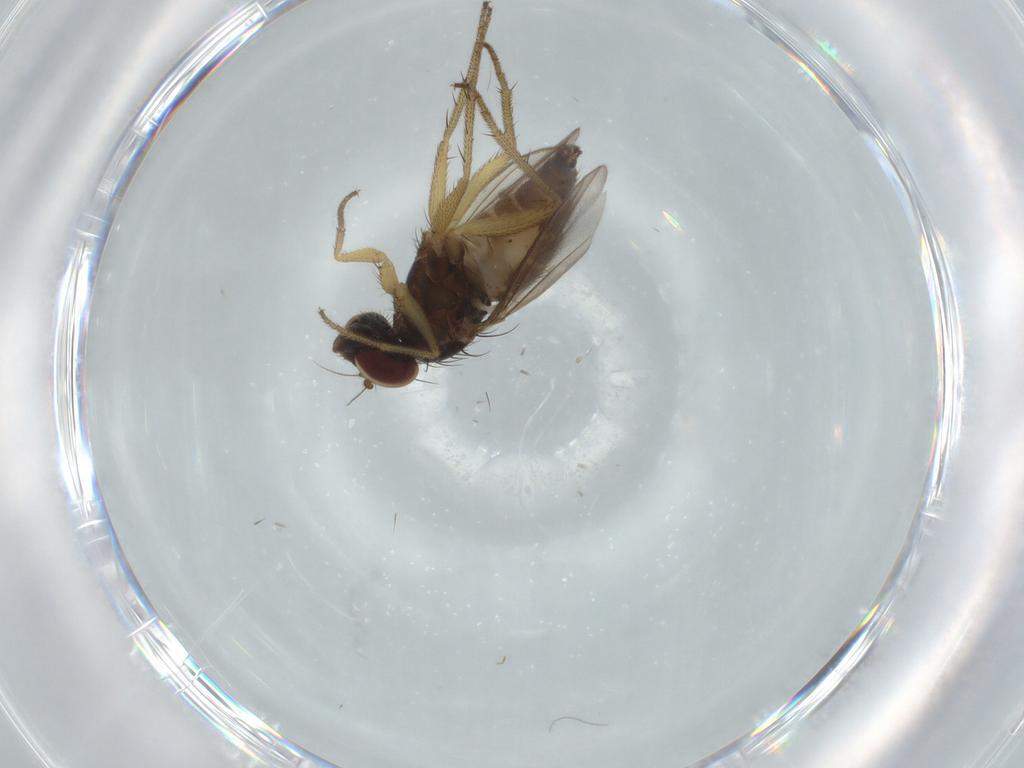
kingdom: Animalia
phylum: Arthropoda
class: Insecta
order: Diptera
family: Dolichopodidae
